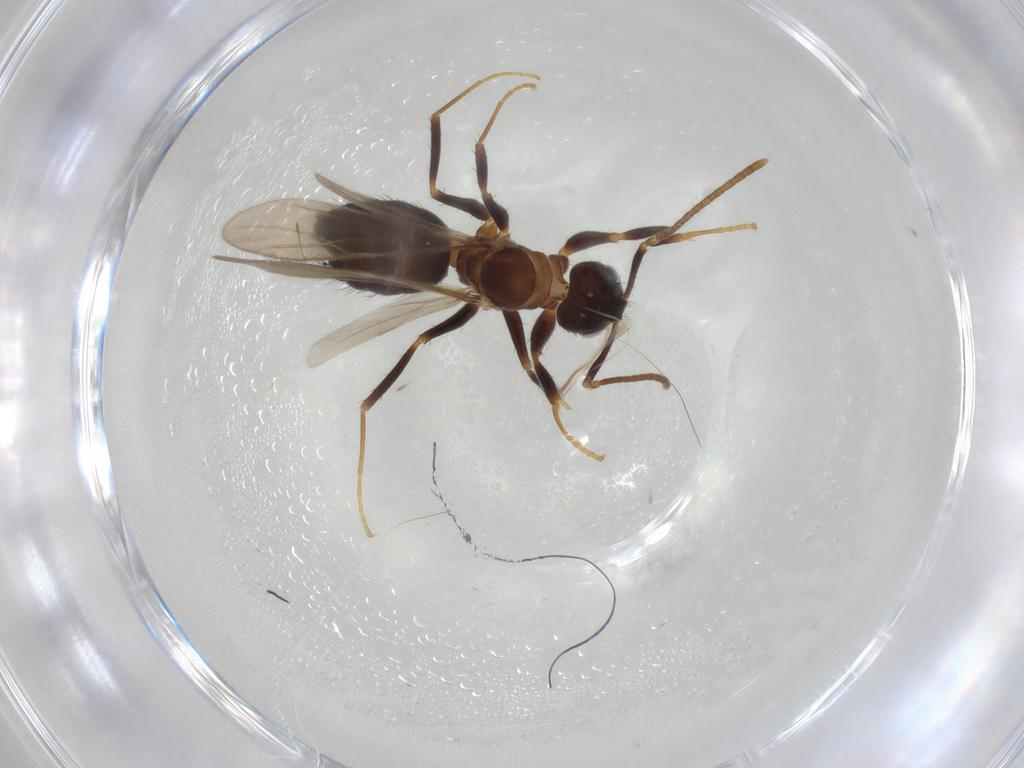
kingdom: Animalia
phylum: Arthropoda
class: Insecta
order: Hymenoptera
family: Formicidae
